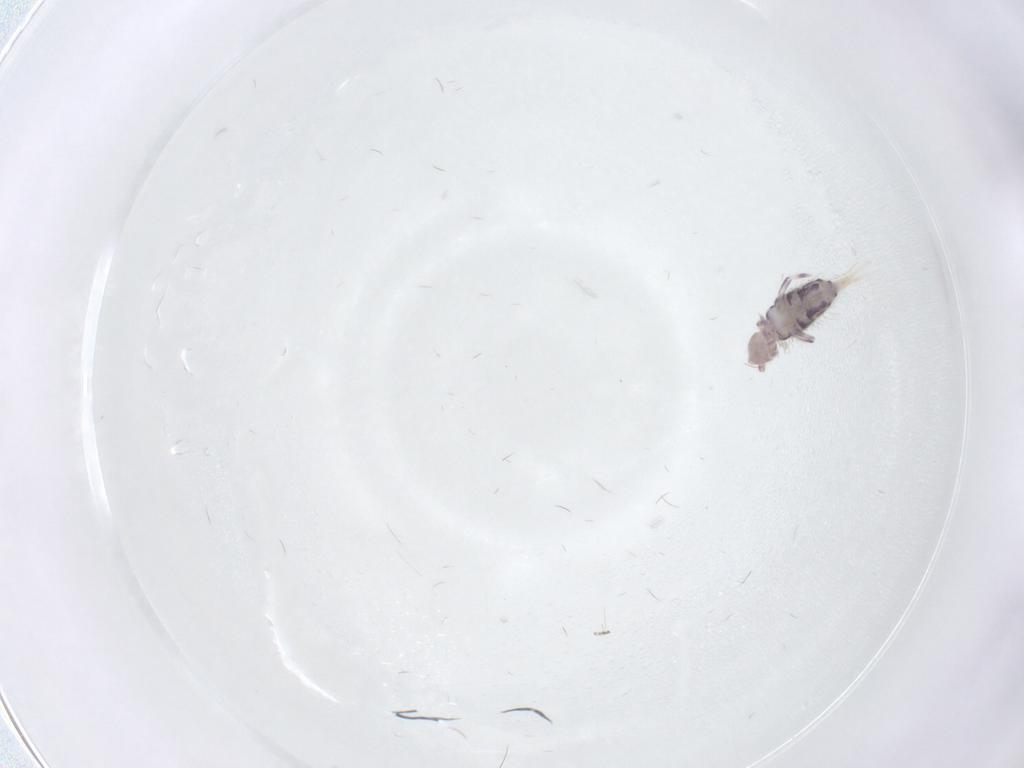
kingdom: Animalia
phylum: Arthropoda
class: Collembola
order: Entomobryomorpha
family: Entomobryidae
